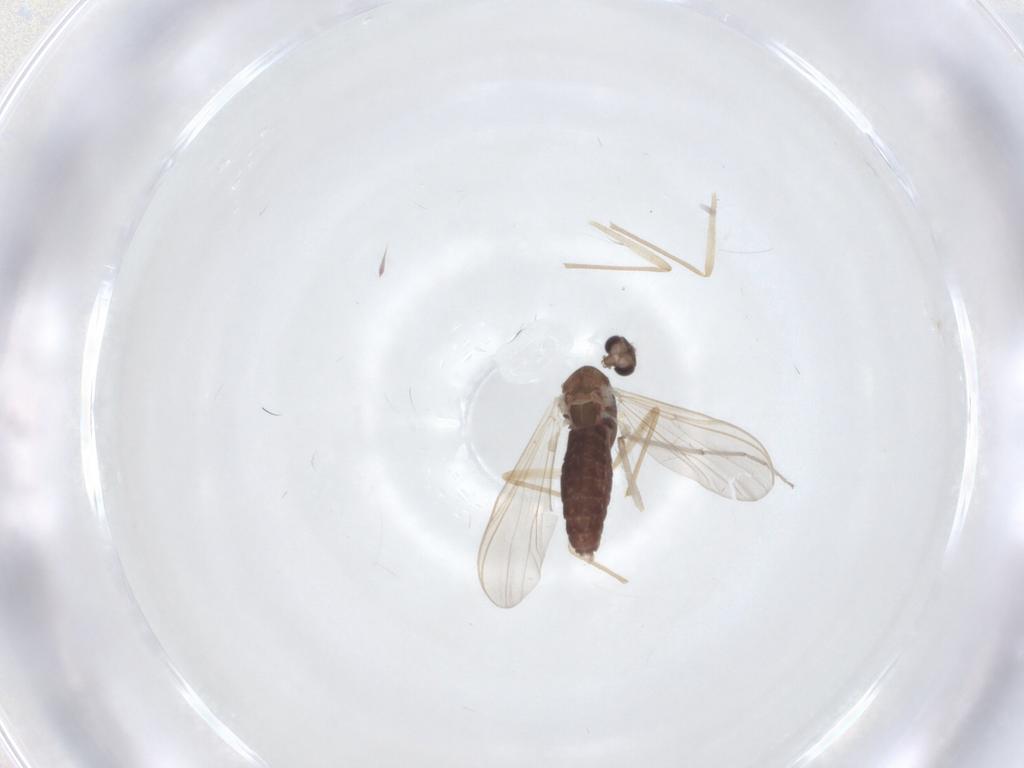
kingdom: Animalia
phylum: Arthropoda
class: Insecta
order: Diptera
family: Chironomidae
